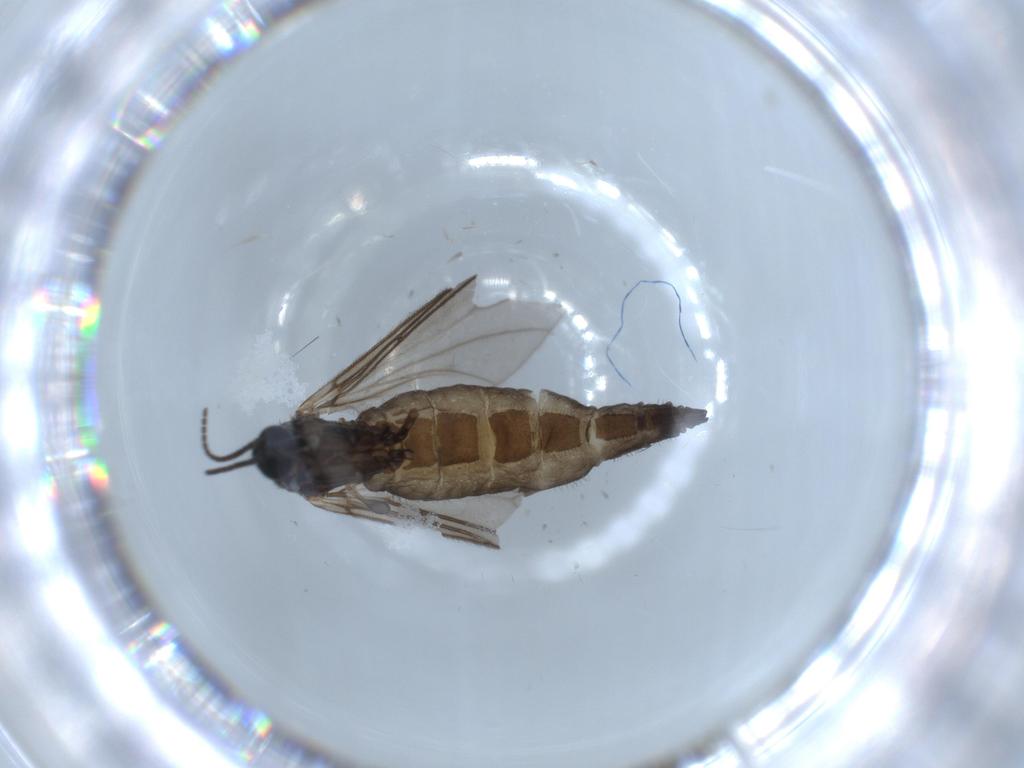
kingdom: Animalia
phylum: Arthropoda
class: Insecta
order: Diptera
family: Sciaridae
